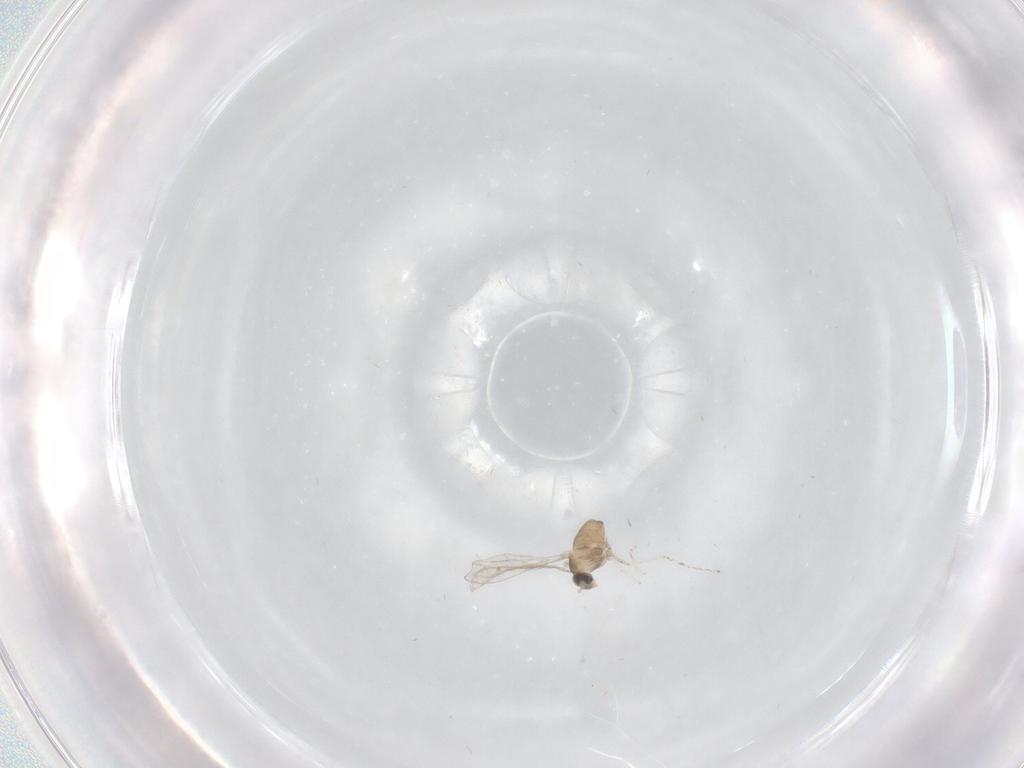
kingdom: Animalia
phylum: Arthropoda
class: Insecta
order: Diptera
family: Cecidomyiidae
